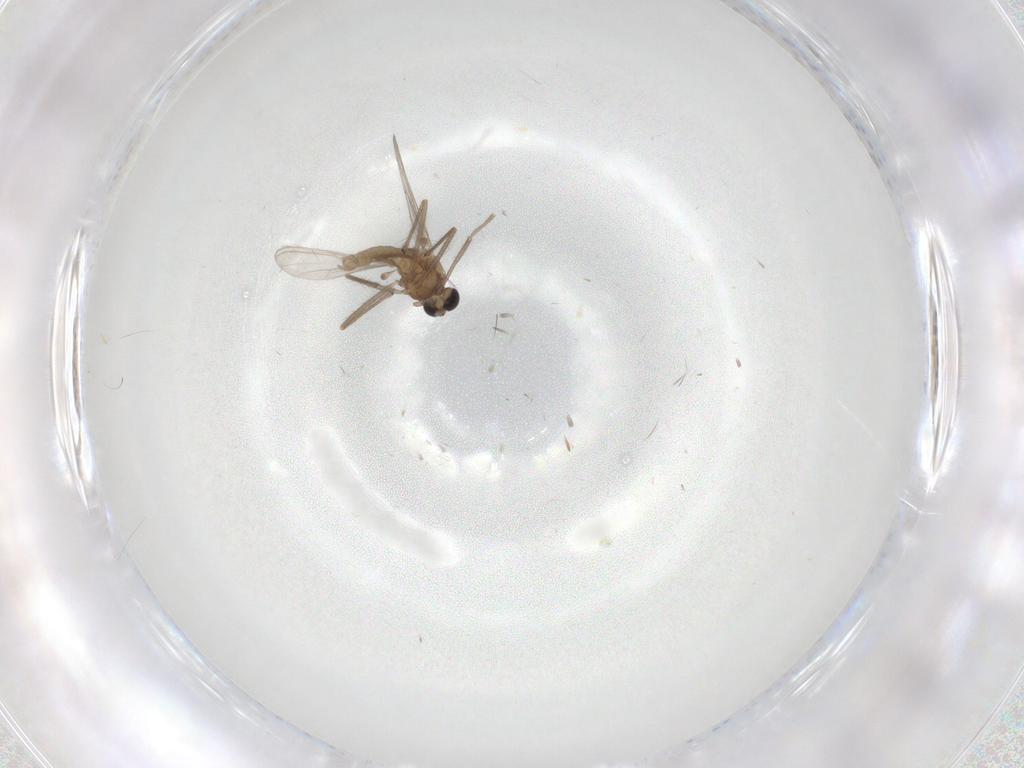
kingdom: Animalia
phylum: Arthropoda
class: Insecta
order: Diptera
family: Chironomidae
